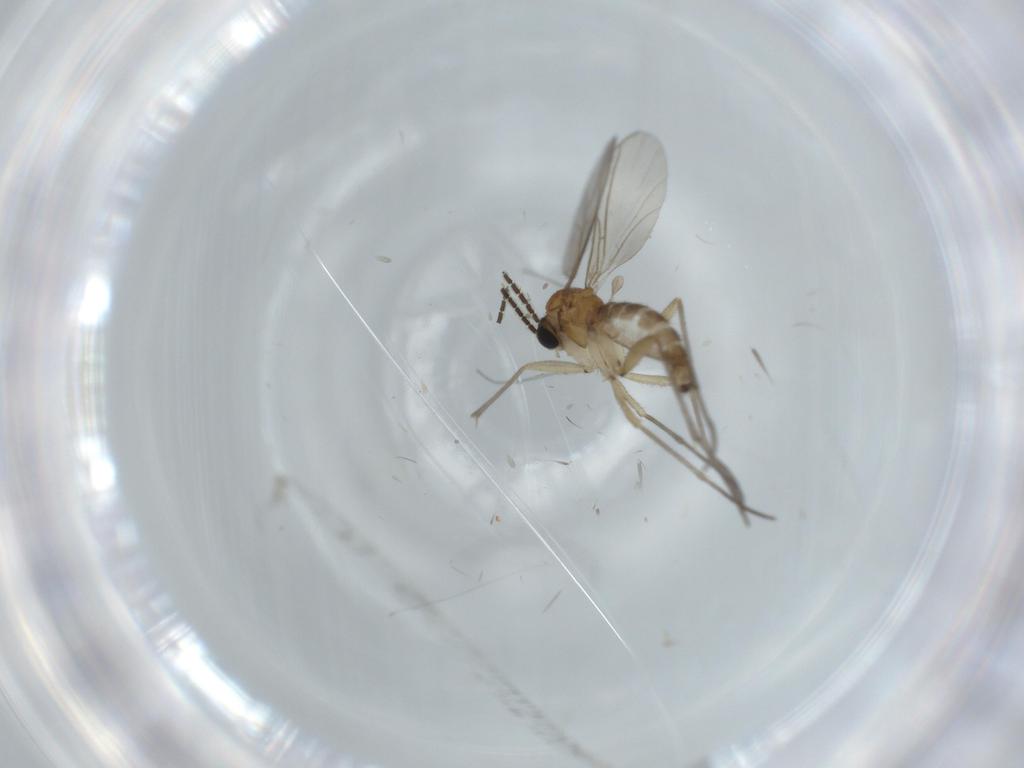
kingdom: Animalia
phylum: Arthropoda
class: Insecta
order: Diptera
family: Sciaridae
